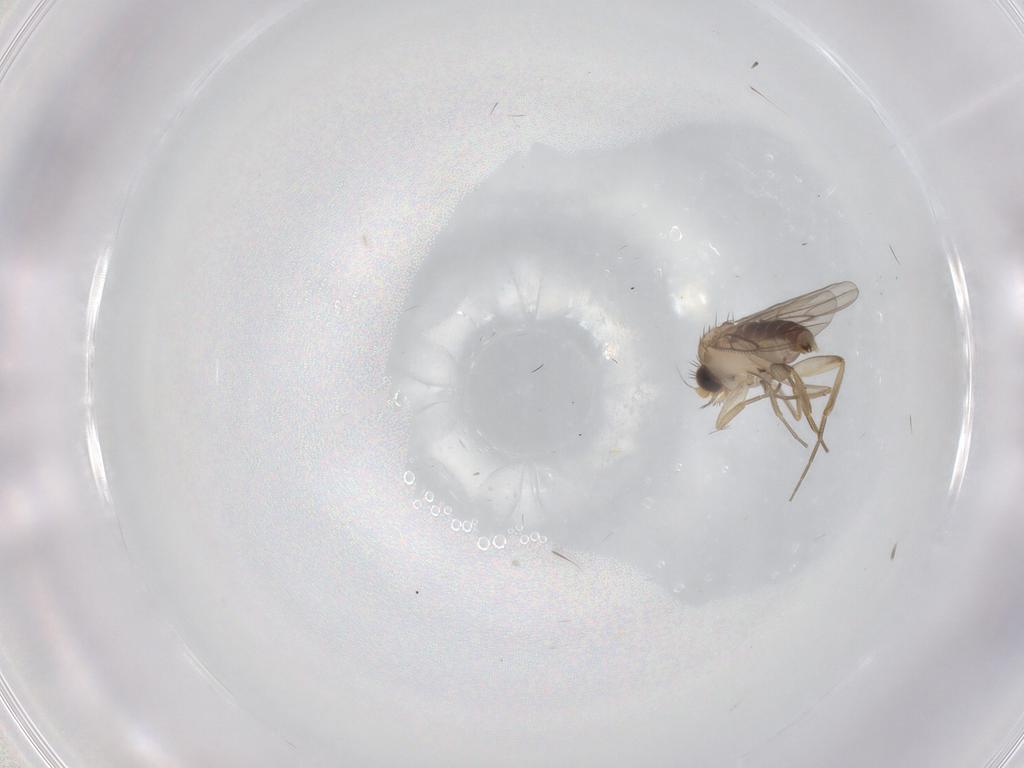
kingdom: Animalia
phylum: Arthropoda
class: Insecta
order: Diptera
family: Phoridae
